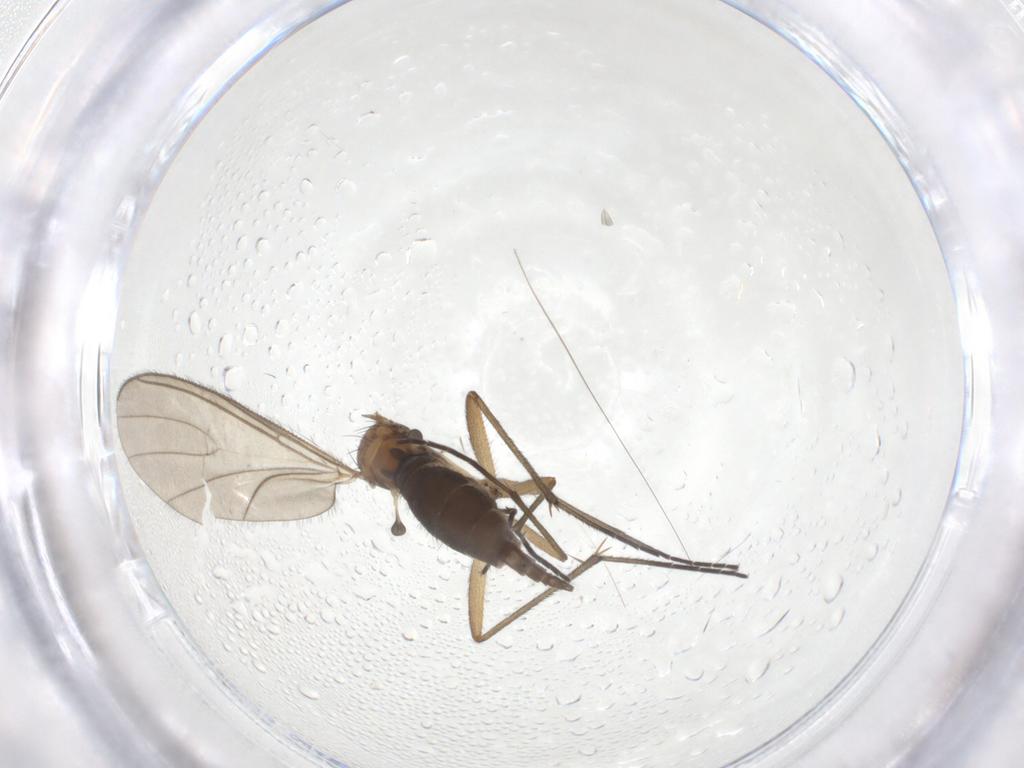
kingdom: Animalia
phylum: Arthropoda
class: Insecta
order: Diptera
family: Sciaridae
